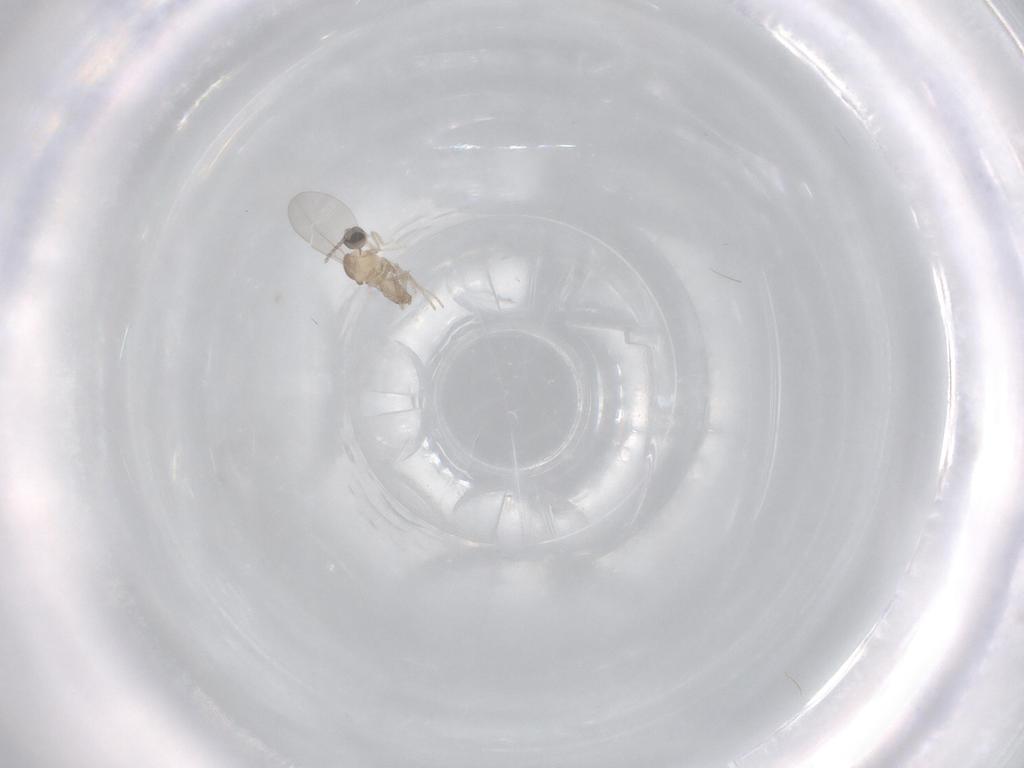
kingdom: Animalia
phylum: Arthropoda
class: Insecta
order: Diptera
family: Cecidomyiidae
